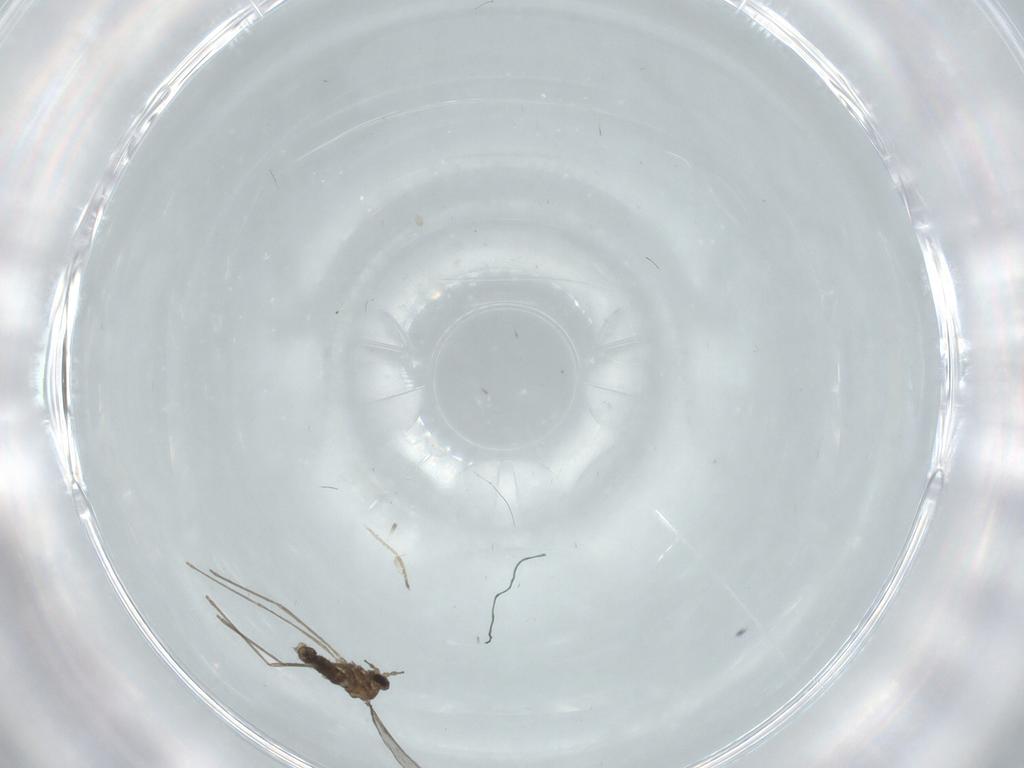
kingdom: Animalia
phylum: Arthropoda
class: Insecta
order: Diptera
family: Cecidomyiidae
